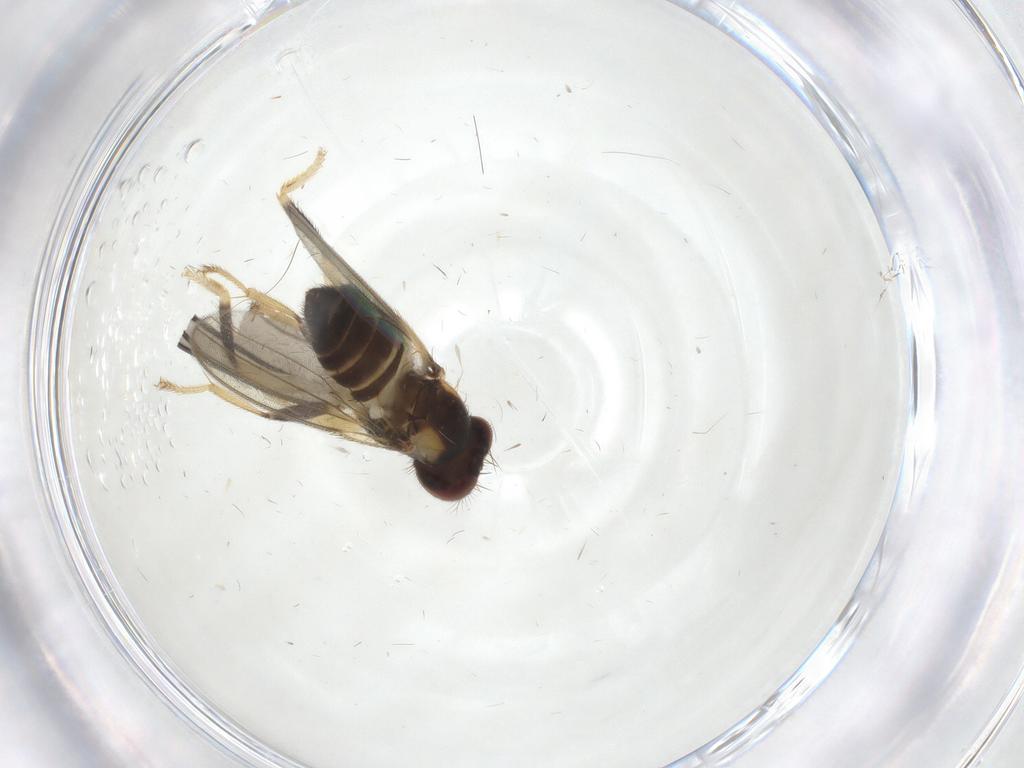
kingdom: Animalia
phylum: Arthropoda
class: Insecta
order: Diptera
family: Periscelididae
